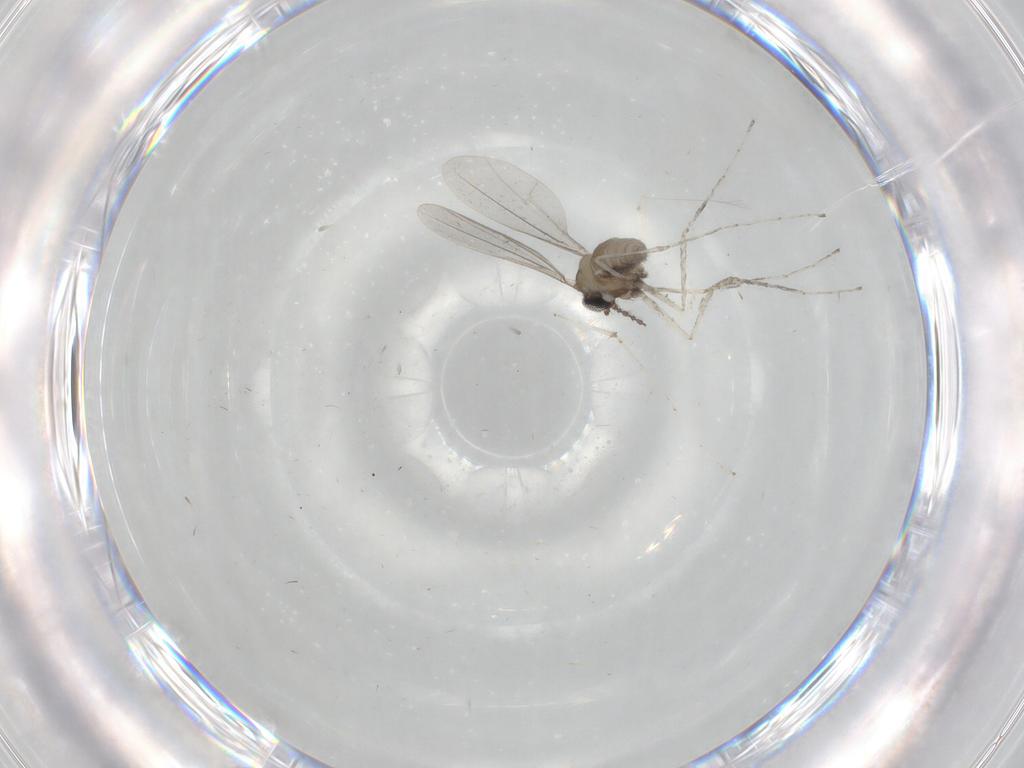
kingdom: Animalia
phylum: Arthropoda
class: Insecta
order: Diptera
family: Cecidomyiidae
